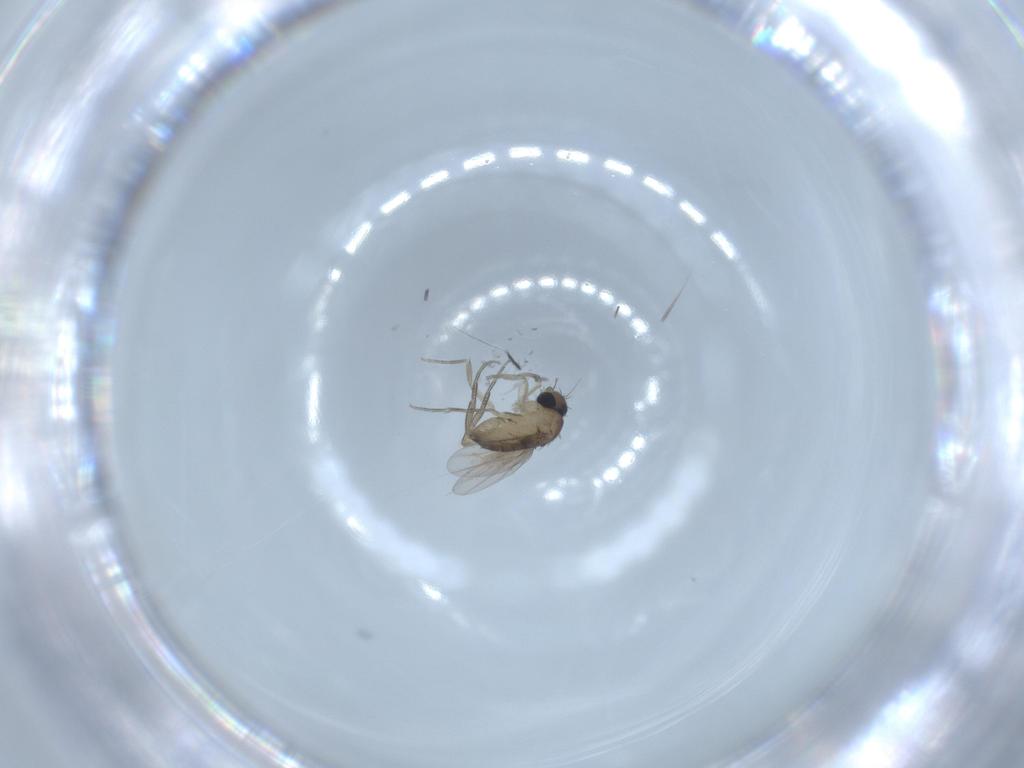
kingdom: Animalia
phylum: Arthropoda
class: Insecta
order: Diptera
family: Phoridae
